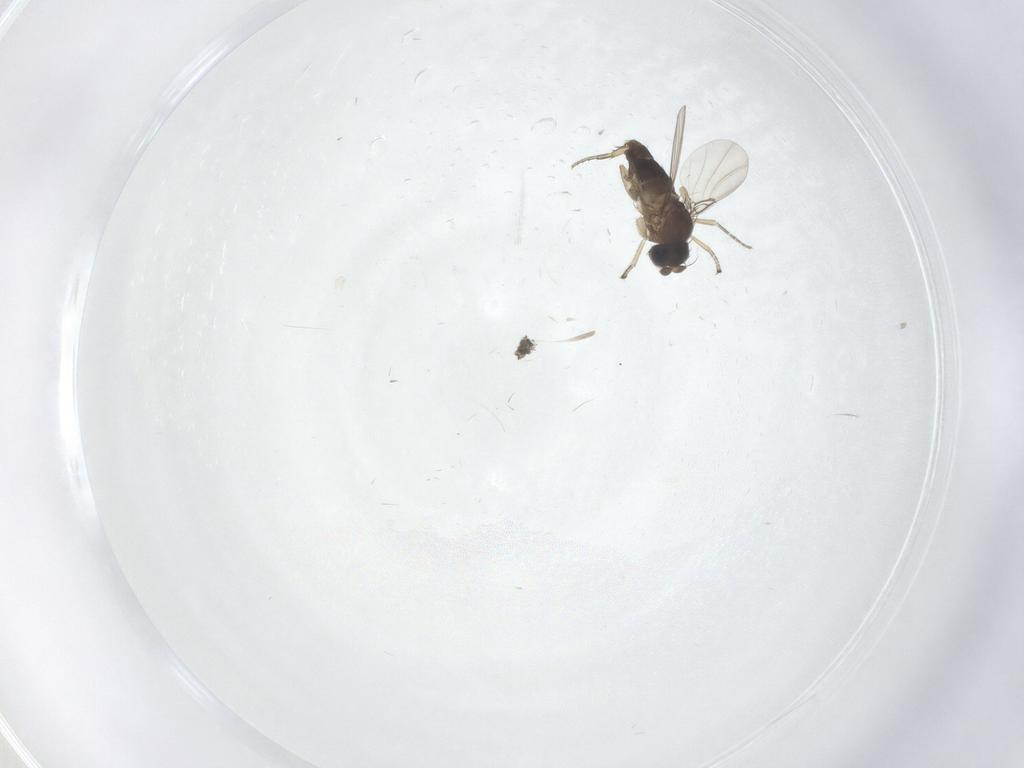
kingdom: Animalia
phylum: Arthropoda
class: Insecta
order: Diptera
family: Phoridae
